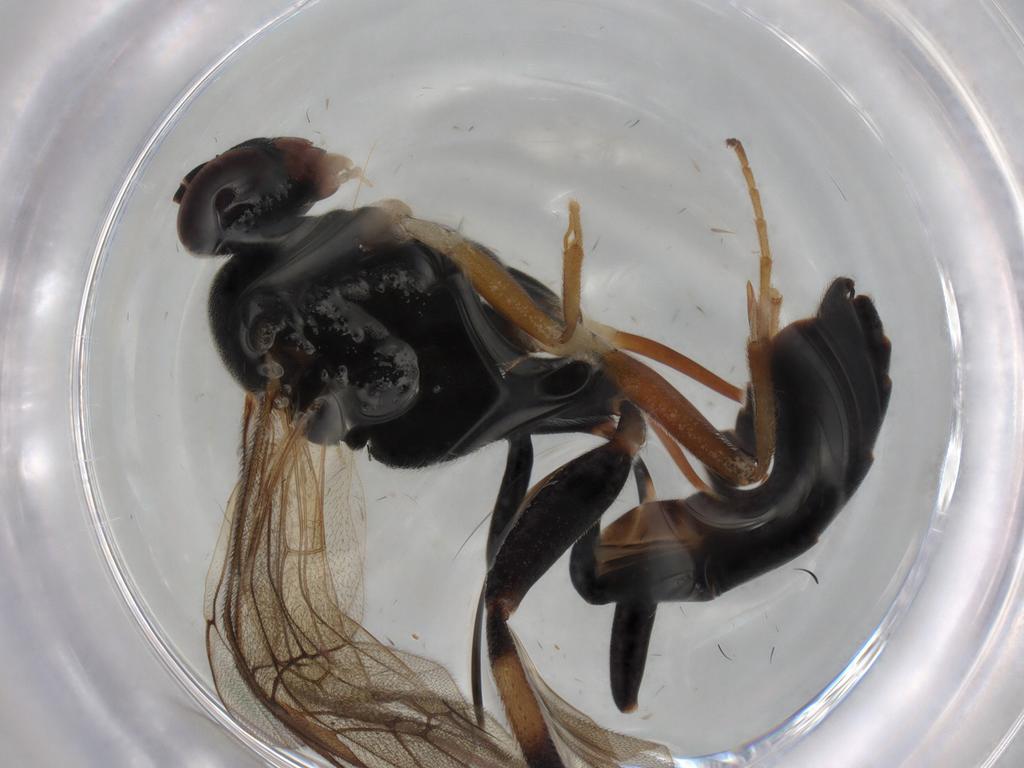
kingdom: Animalia
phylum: Arthropoda
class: Insecta
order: Hymenoptera
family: Ichneumonidae
